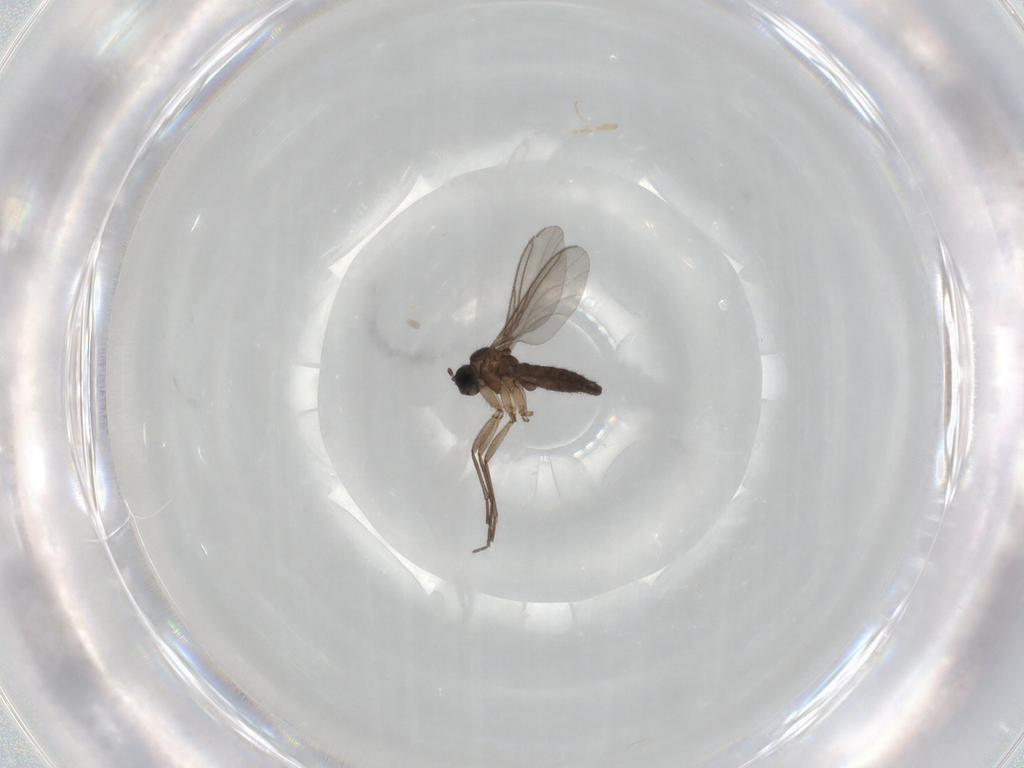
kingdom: Animalia
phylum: Arthropoda
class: Insecta
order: Diptera
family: Sciaridae
